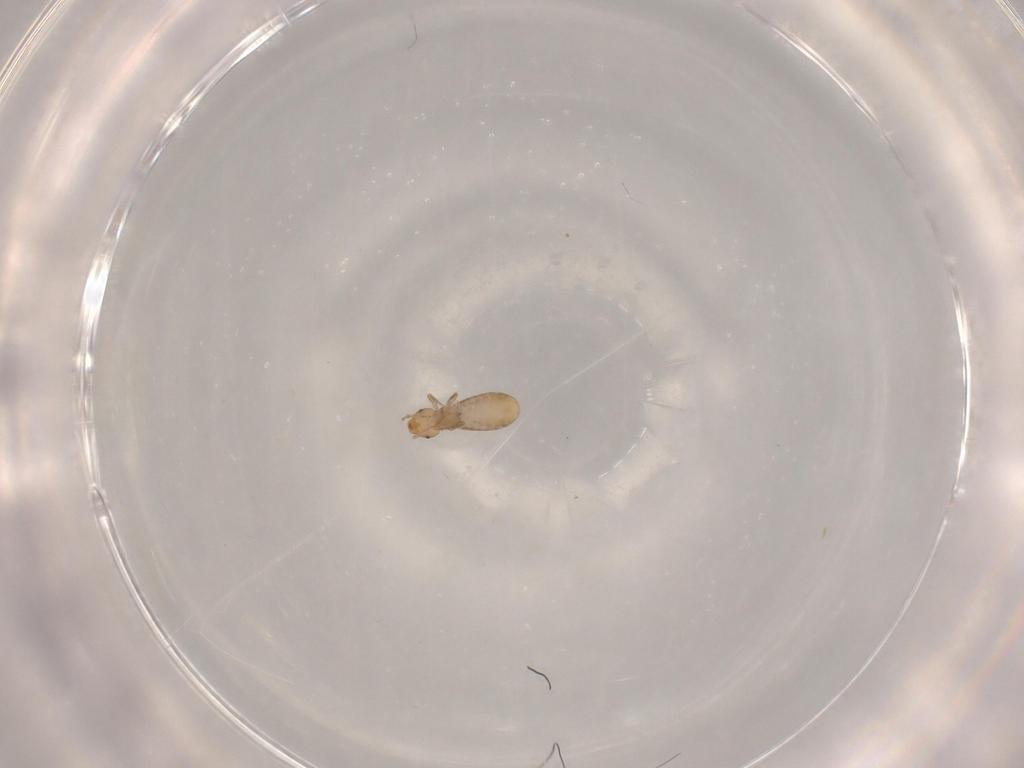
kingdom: Animalia
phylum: Arthropoda
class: Insecta
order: Psocodea
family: Liposcelididae
